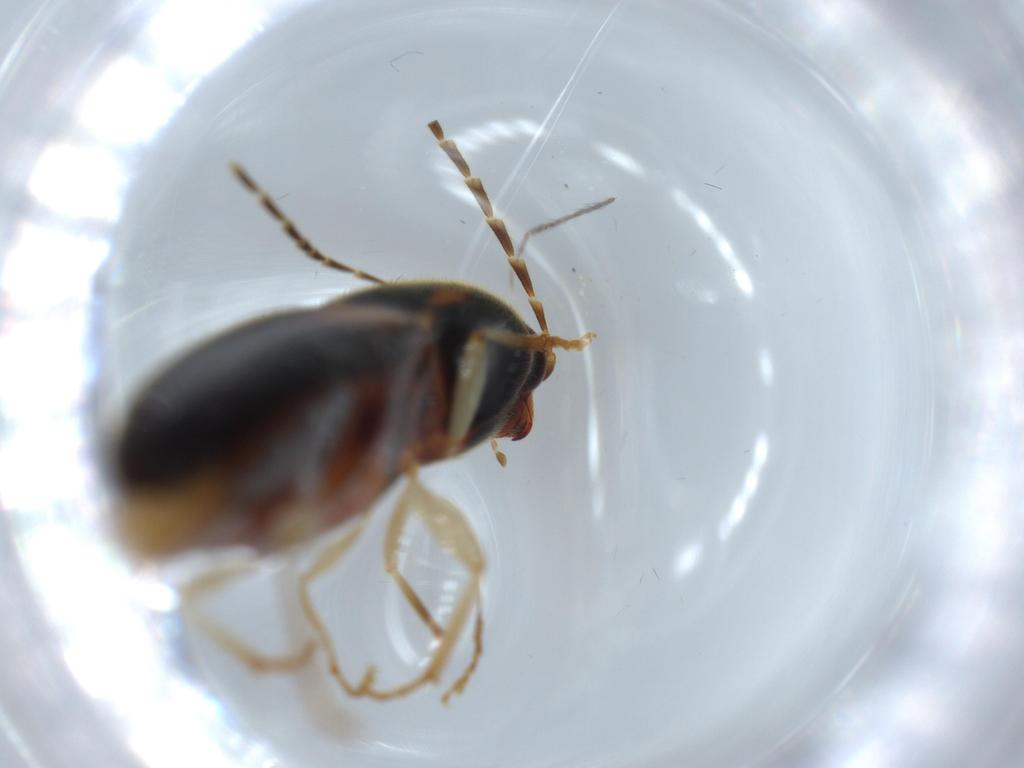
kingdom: Animalia
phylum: Arthropoda
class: Insecta
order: Coleoptera
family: Elateridae
